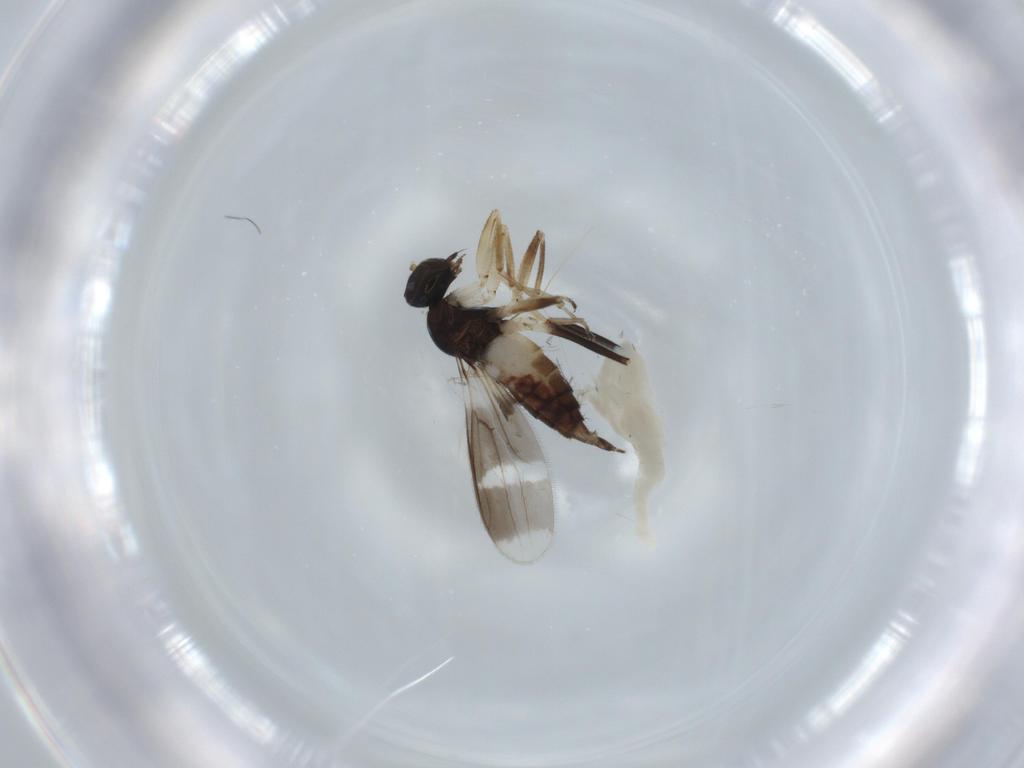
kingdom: Animalia
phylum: Arthropoda
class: Insecta
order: Diptera
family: Hybotidae
